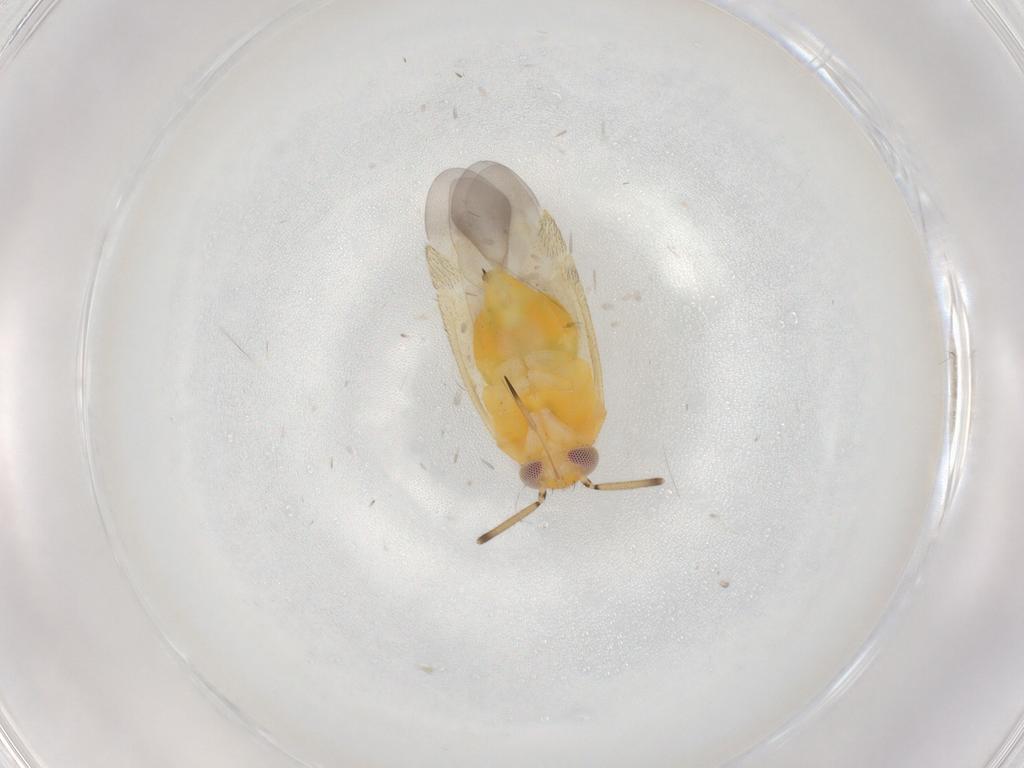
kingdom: Animalia
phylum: Arthropoda
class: Insecta
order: Hemiptera
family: Miridae
